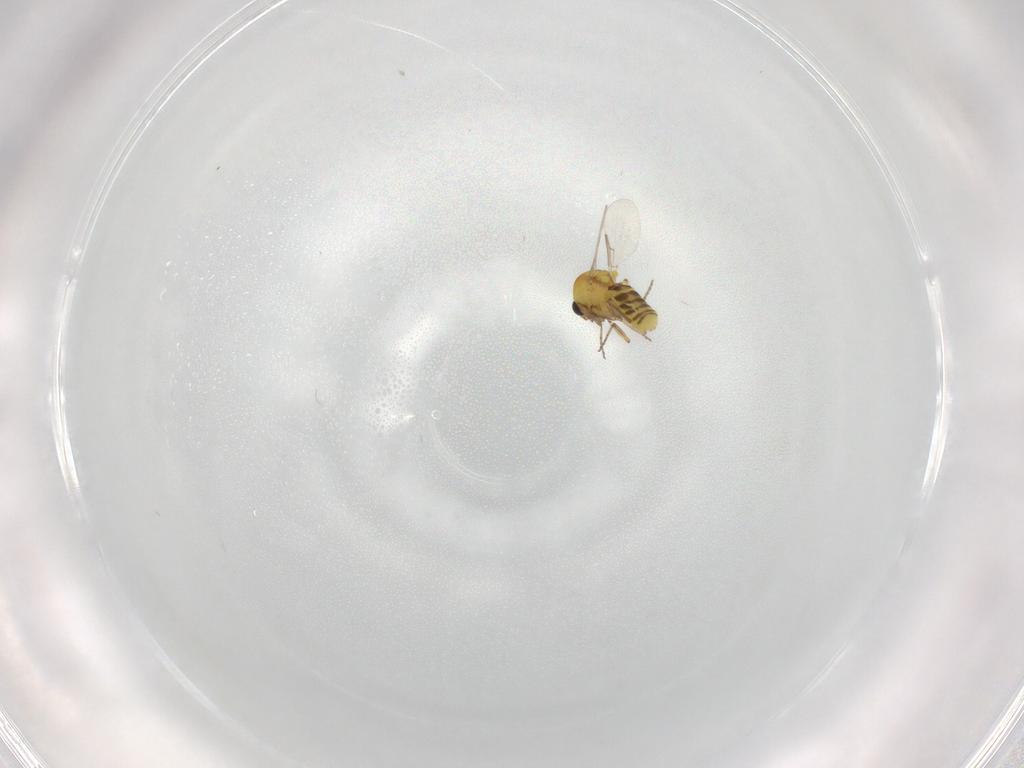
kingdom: Animalia
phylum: Arthropoda
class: Insecta
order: Diptera
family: Ceratopogonidae
